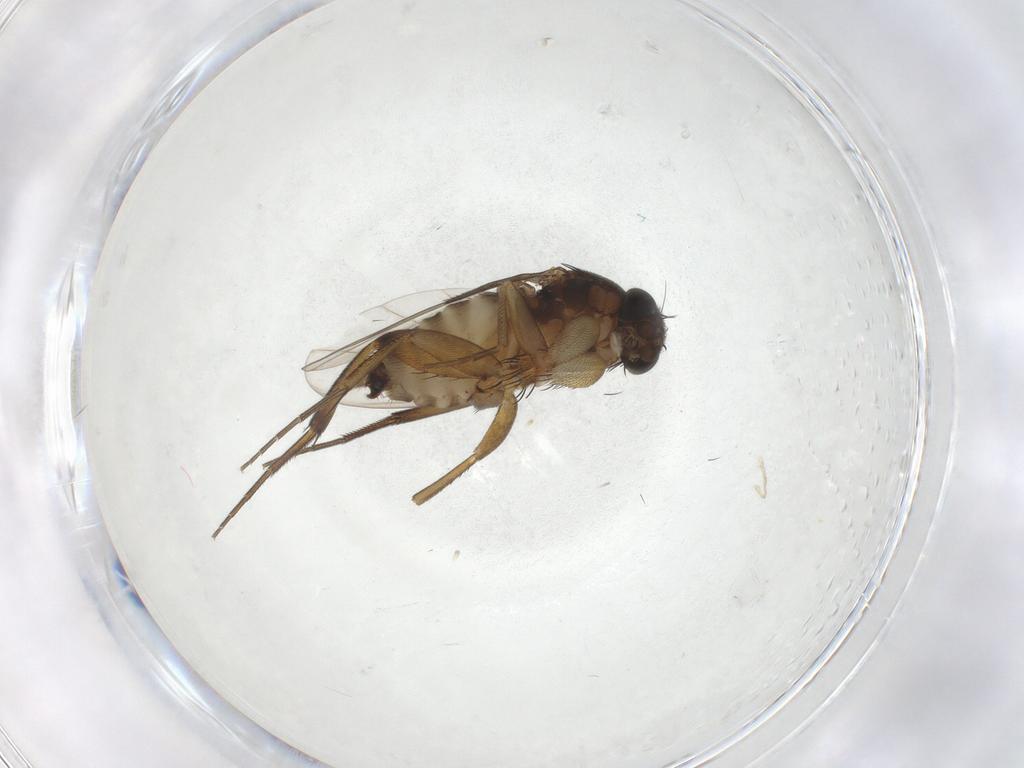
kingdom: Animalia
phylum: Arthropoda
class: Insecta
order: Diptera
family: Phoridae
